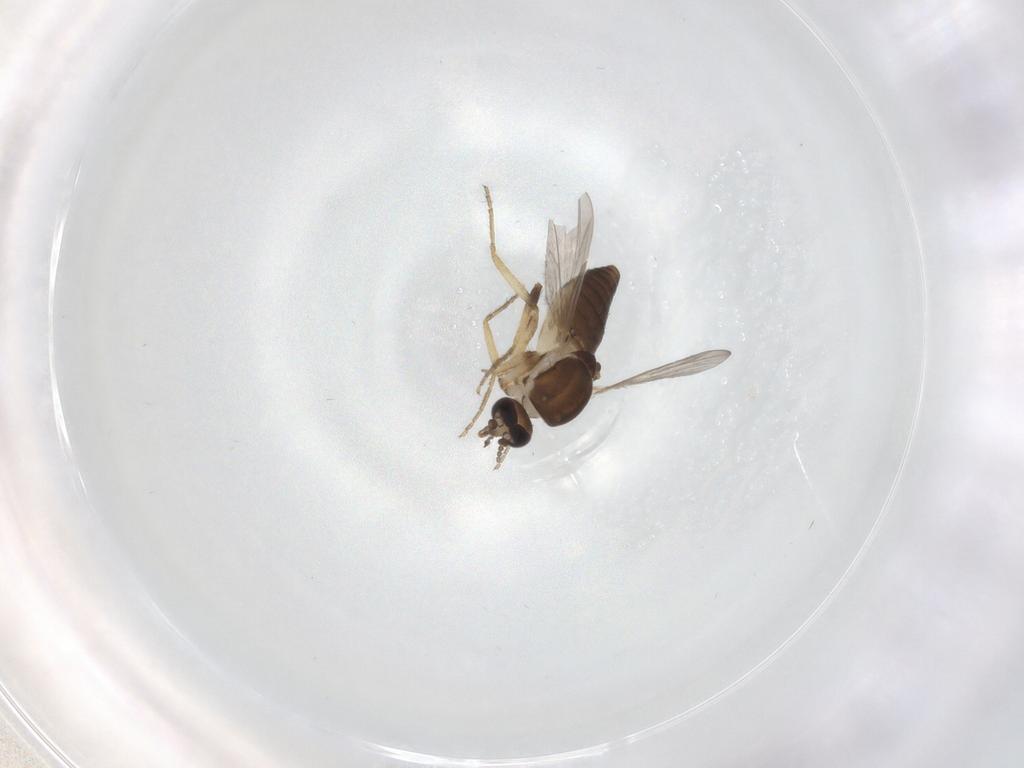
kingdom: Animalia
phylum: Arthropoda
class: Insecta
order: Diptera
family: Ceratopogonidae
